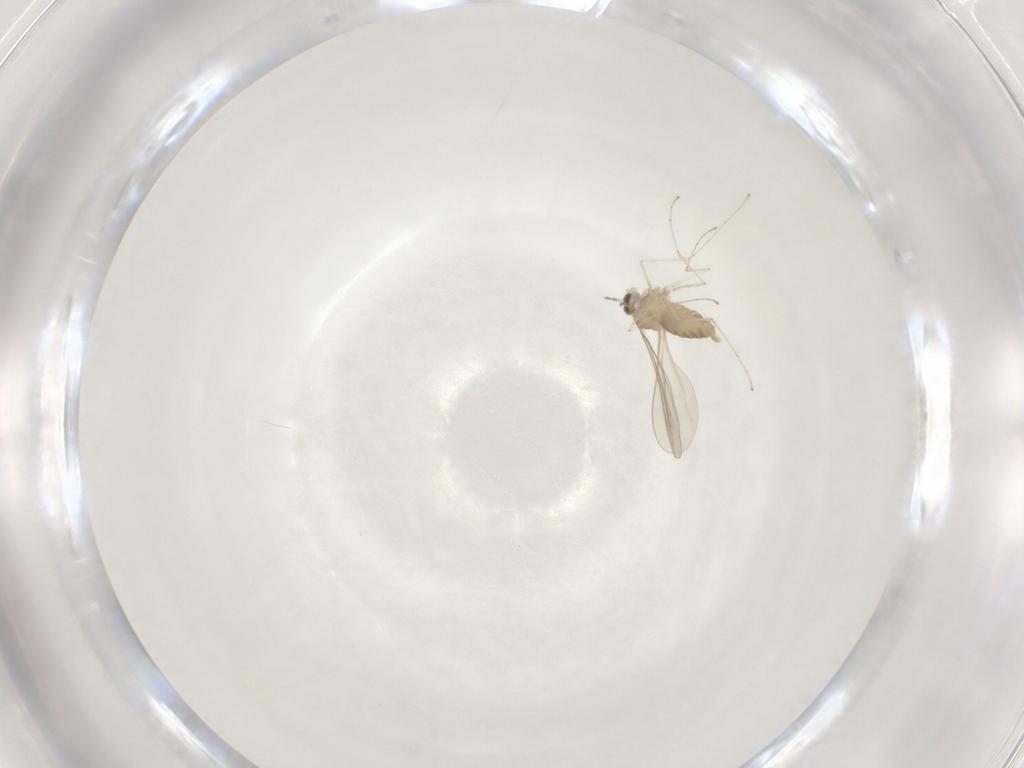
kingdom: Animalia
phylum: Arthropoda
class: Insecta
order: Diptera
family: Cecidomyiidae
